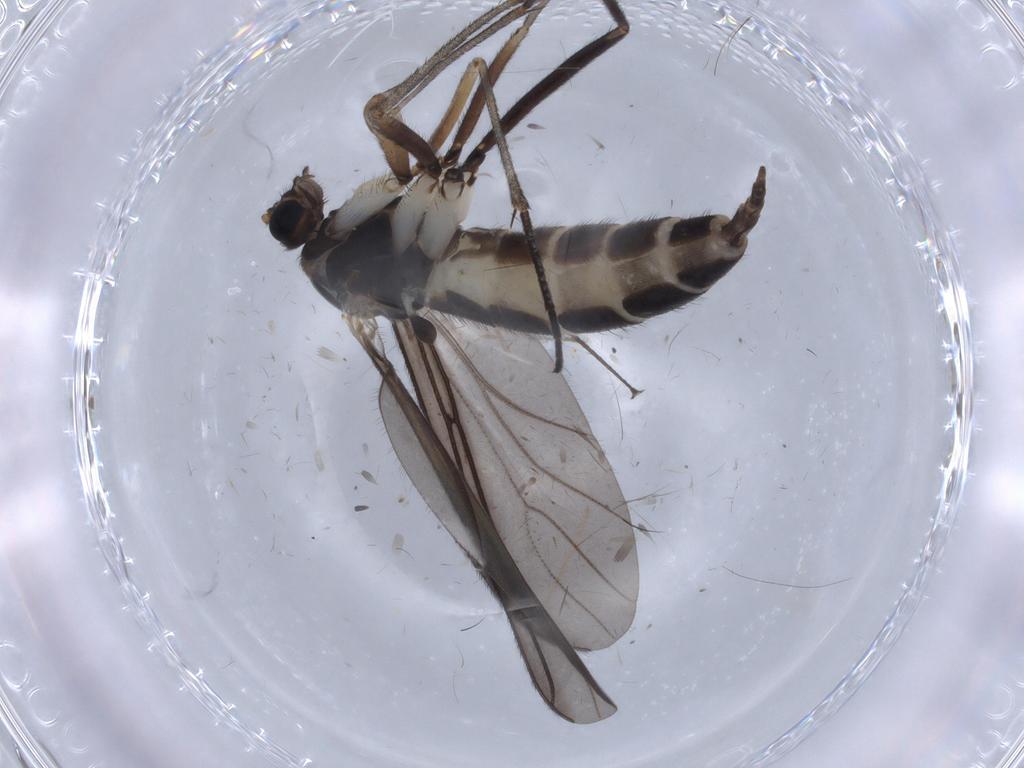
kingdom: Animalia
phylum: Arthropoda
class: Insecta
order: Diptera
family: Sciaridae
